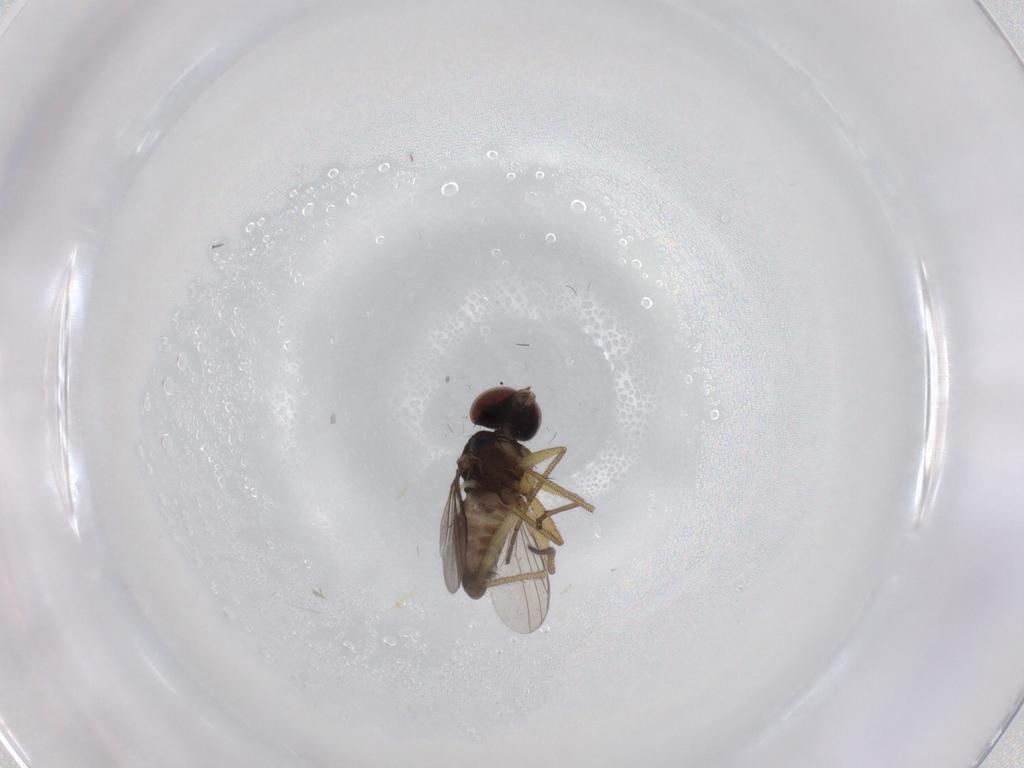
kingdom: Animalia
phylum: Arthropoda
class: Insecta
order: Diptera
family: Dolichopodidae
